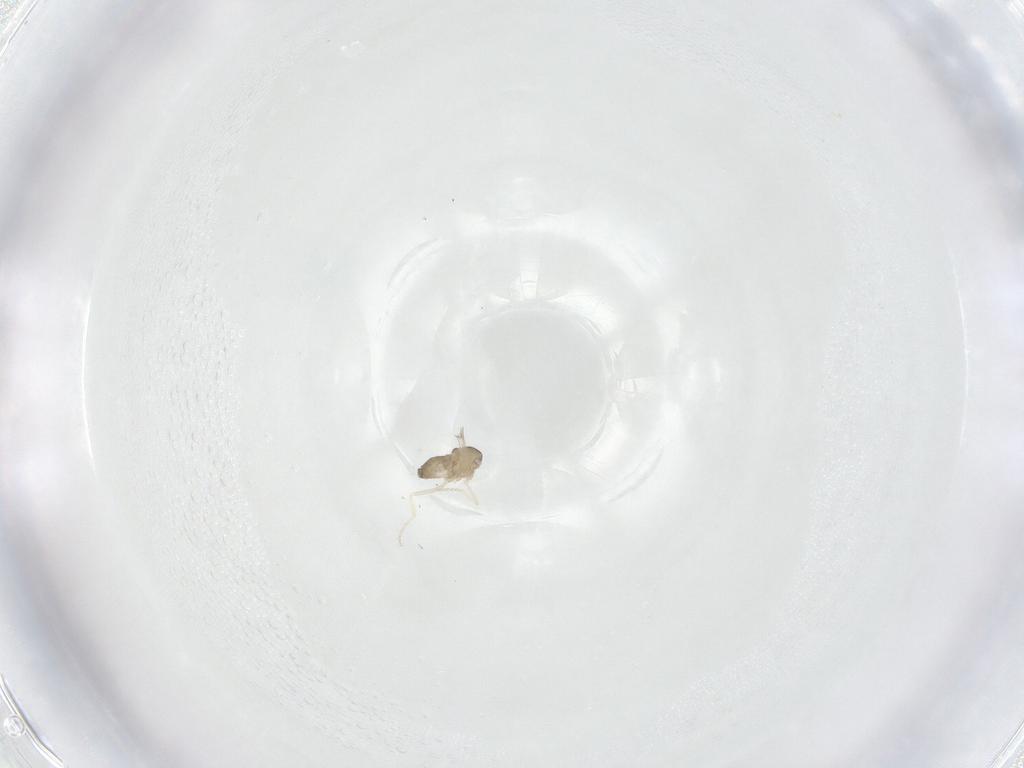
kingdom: Animalia
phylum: Arthropoda
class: Insecta
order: Diptera
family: Cecidomyiidae
